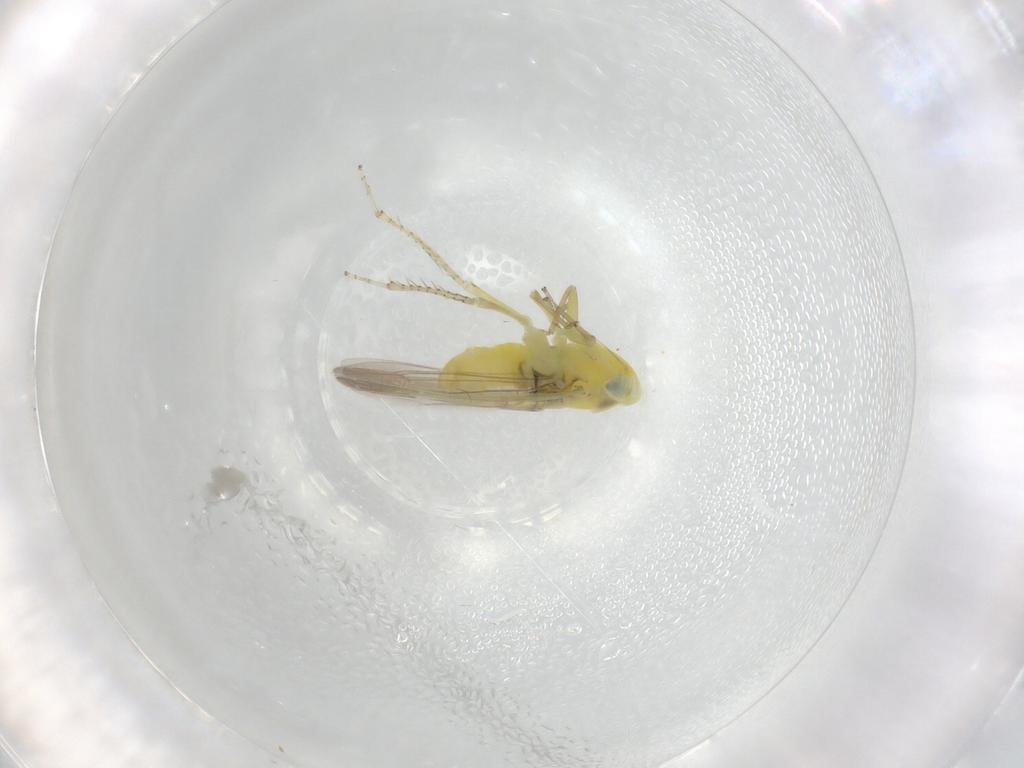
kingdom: Animalia
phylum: Arthropoda
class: Insecta
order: Hemiptera
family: Cicadellidae
